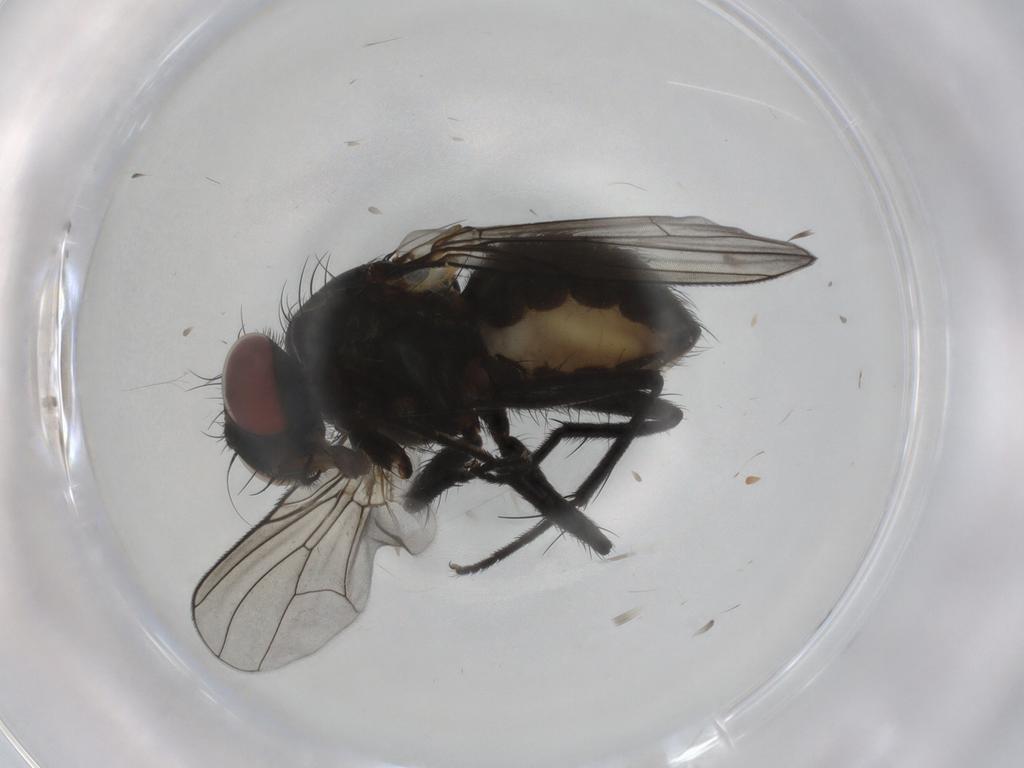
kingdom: Animalia
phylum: Arthropoda
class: Insecta
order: Diptera
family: Muscidae
